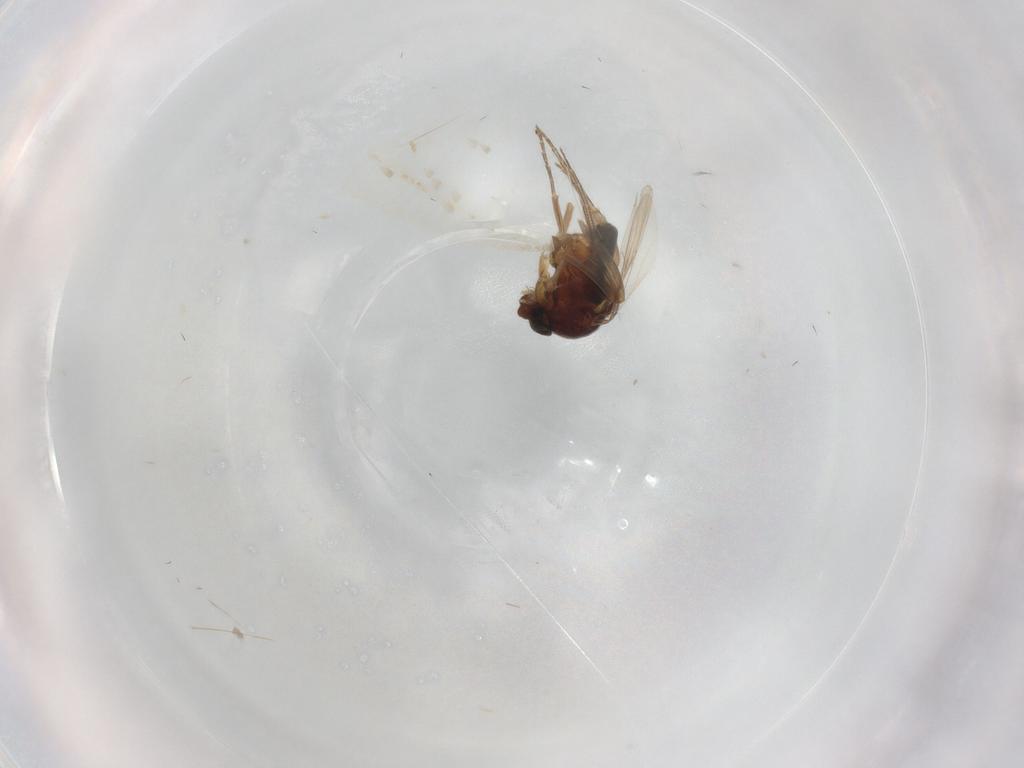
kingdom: Animalia
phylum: Arthropoda
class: Insecta
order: Diptera
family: Phoridae
